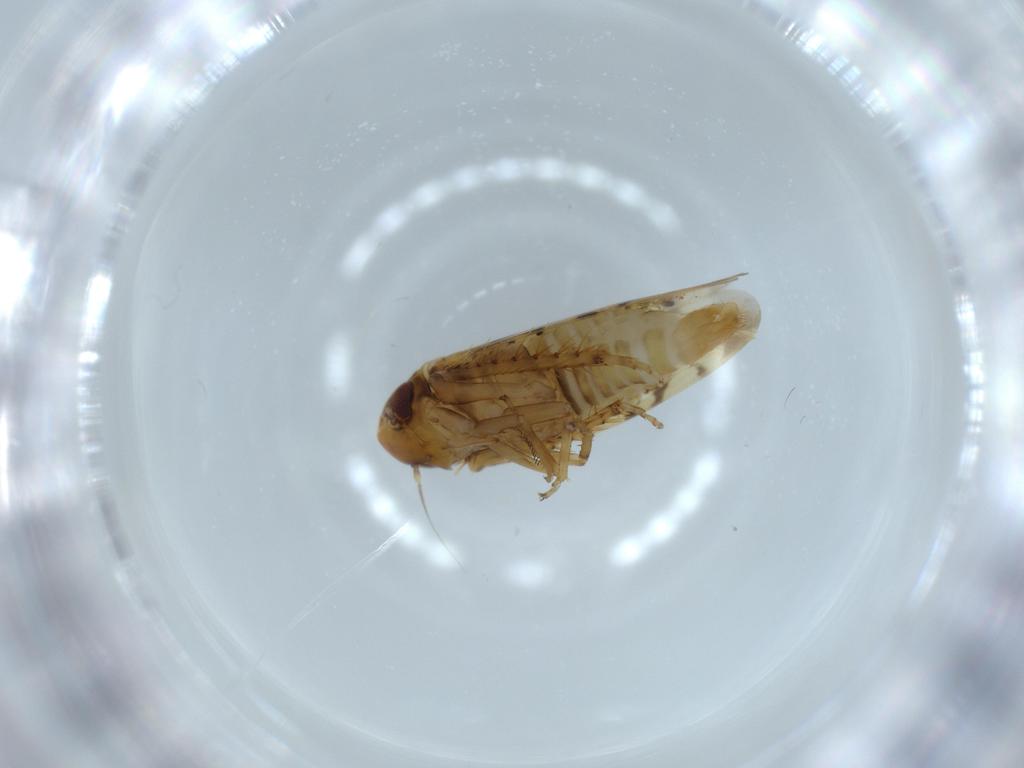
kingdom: Animalia
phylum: Arthropoda
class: Insecta
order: Hemiptera
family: Cicadellidae
